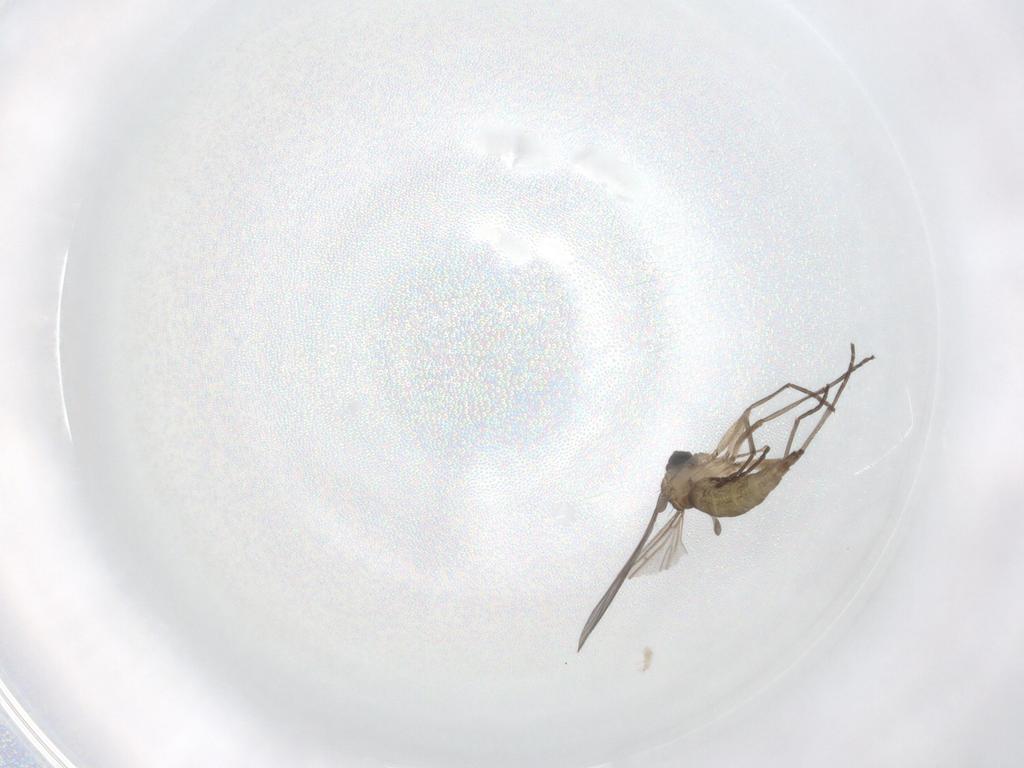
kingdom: Animalia
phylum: Arthropoda
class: Insecta
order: Diptera
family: Sciaridae
